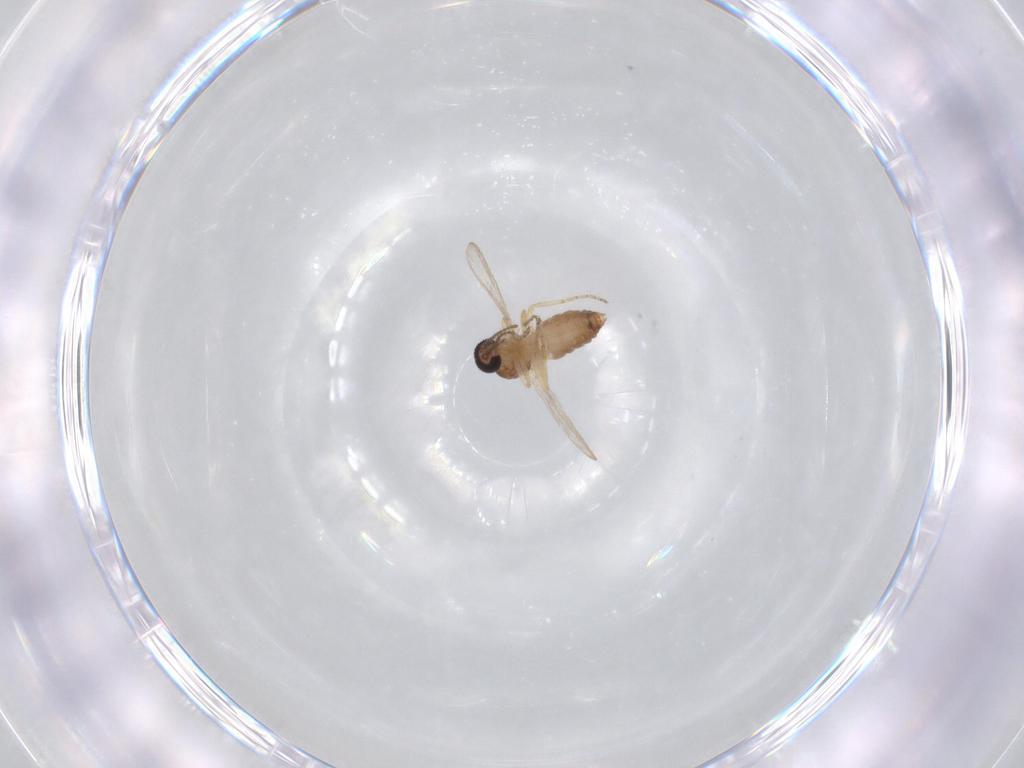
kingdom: Animalia
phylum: Arthropoda
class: Insecta
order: Diptera
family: Ceratopogonidae
